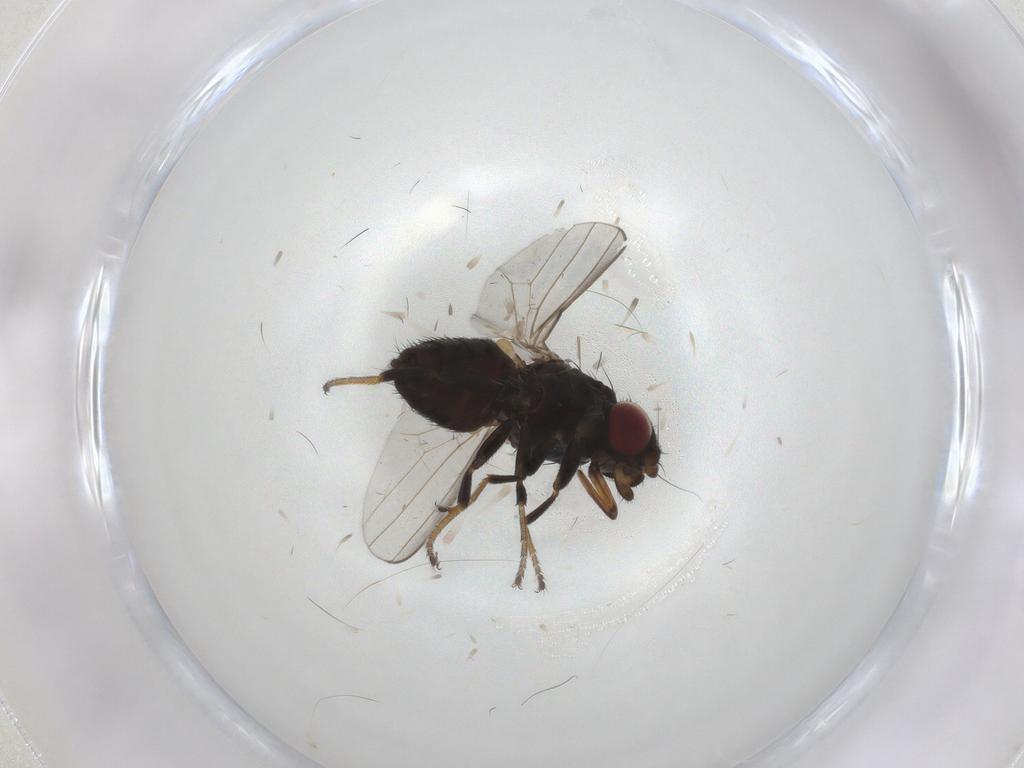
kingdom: Animalia
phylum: Arthropoda
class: Insecta
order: Diptera
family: Milichiidae
